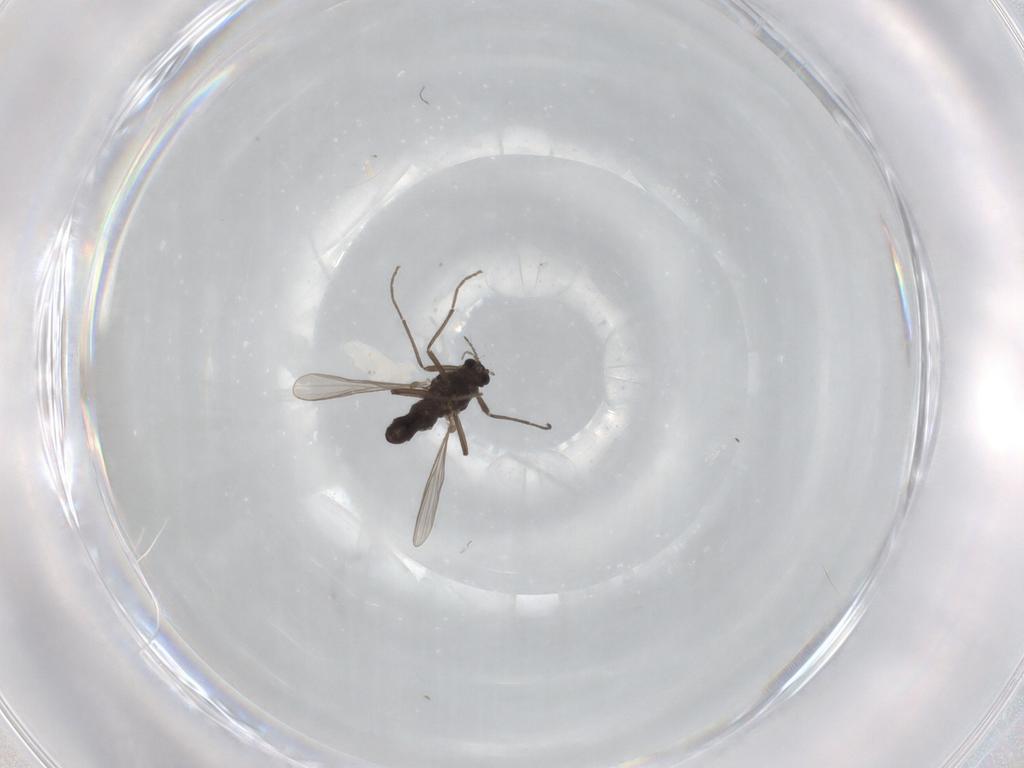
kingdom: Animalia
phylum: Arthropoda
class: Insecta
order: Diptera
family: Chironomidae
